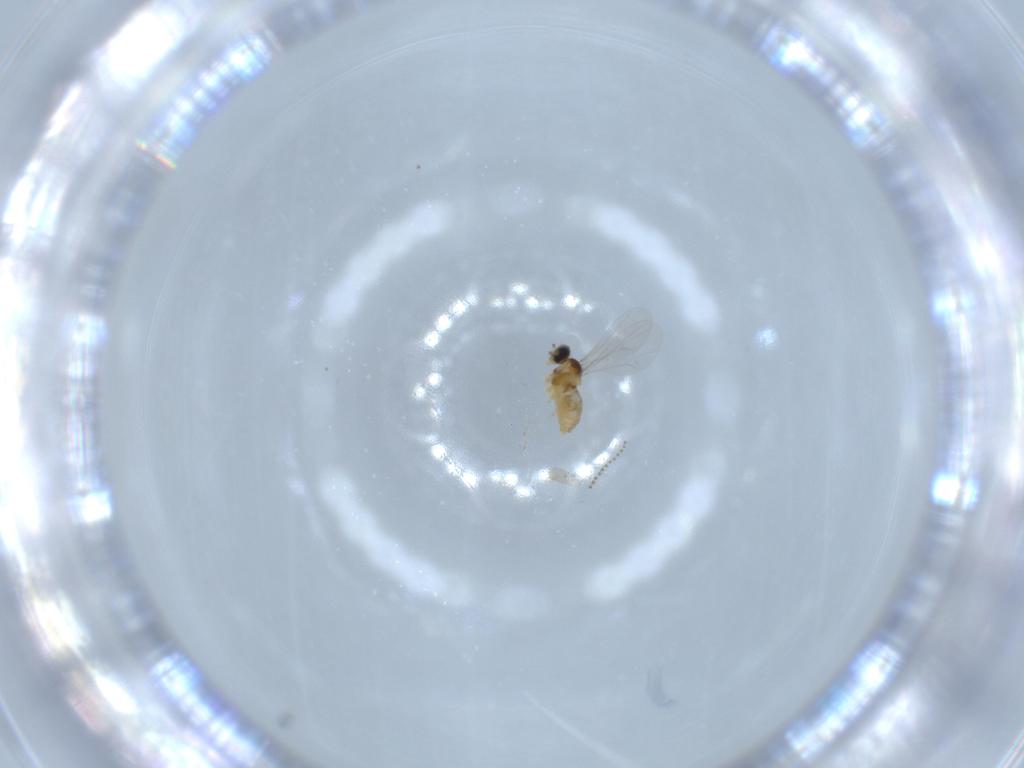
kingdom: Animalia
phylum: Arthropoda
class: Insecta
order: Diptera
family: Cecidomyiidae
